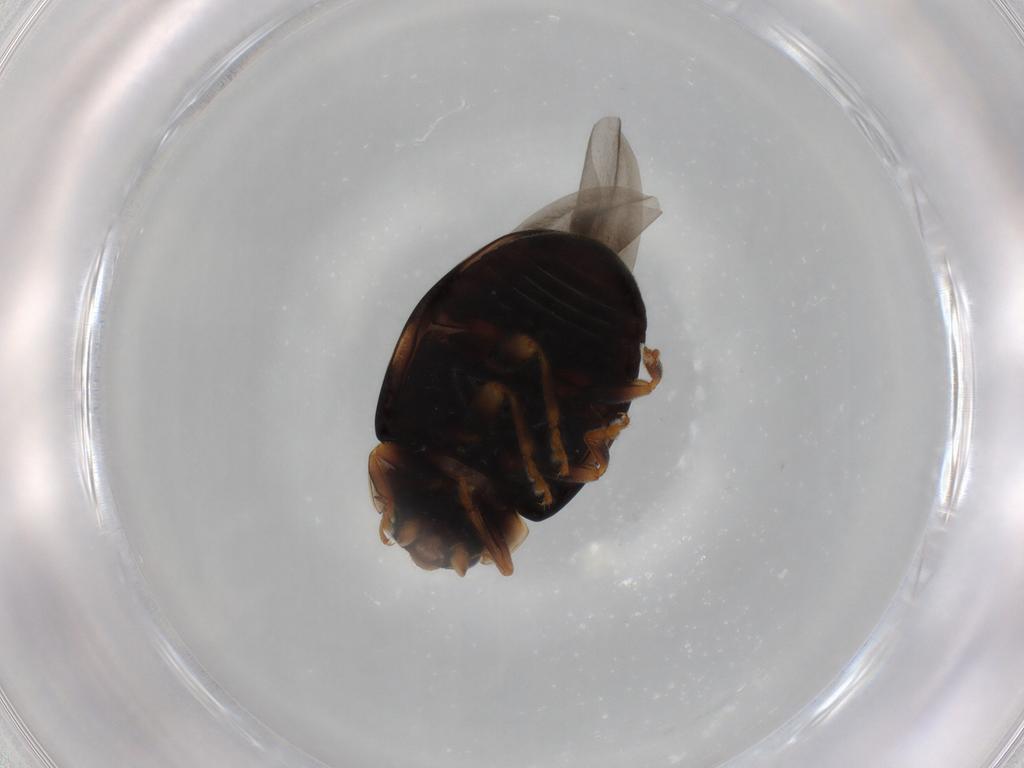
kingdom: Animalia
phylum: Arthropoda
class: Insecta
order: Coleoptera
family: Coccinellidae
